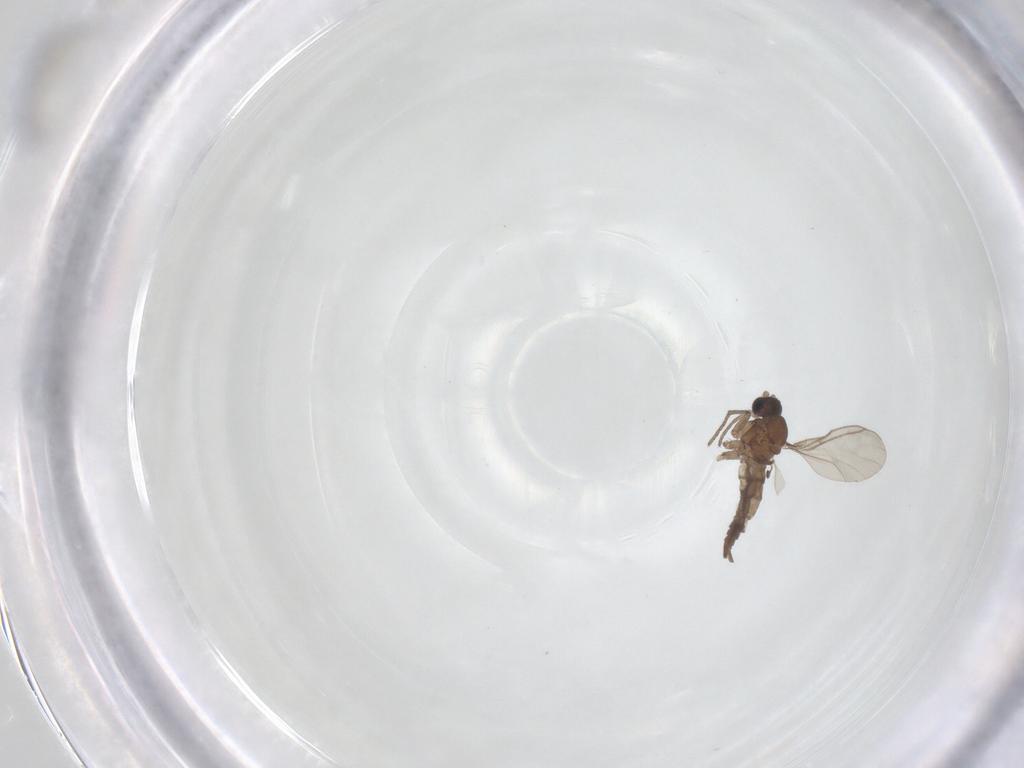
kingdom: Animalia
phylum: Arthropoda
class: Insecta
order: Diptera
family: Sciaridae
